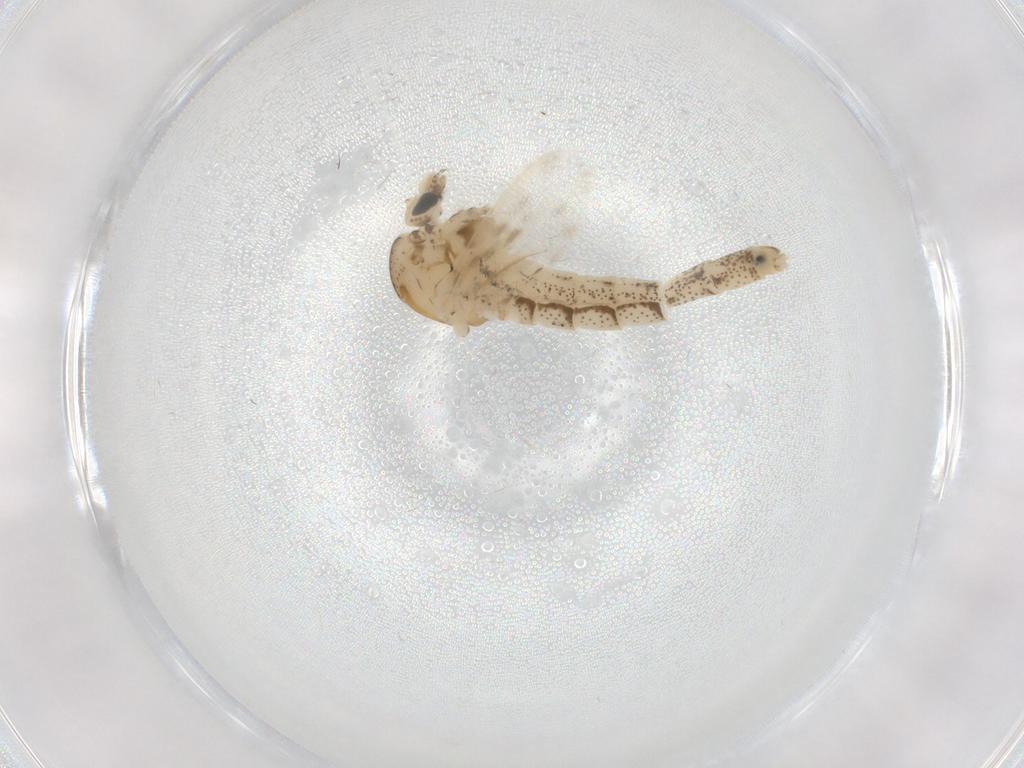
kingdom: Animalia
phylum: Arthropoda
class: Insecta
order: Diptera
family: Chaoboridae
